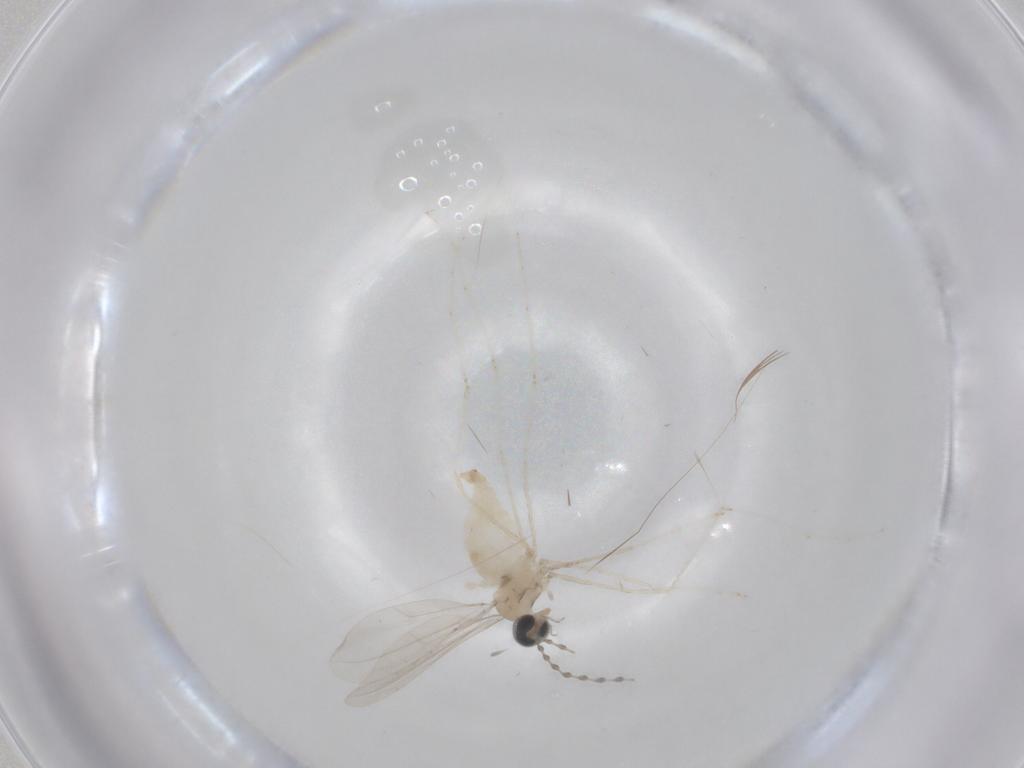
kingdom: Animalia
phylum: Arthropoda
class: Insecta
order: Diptera
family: Cecidomyiidae
